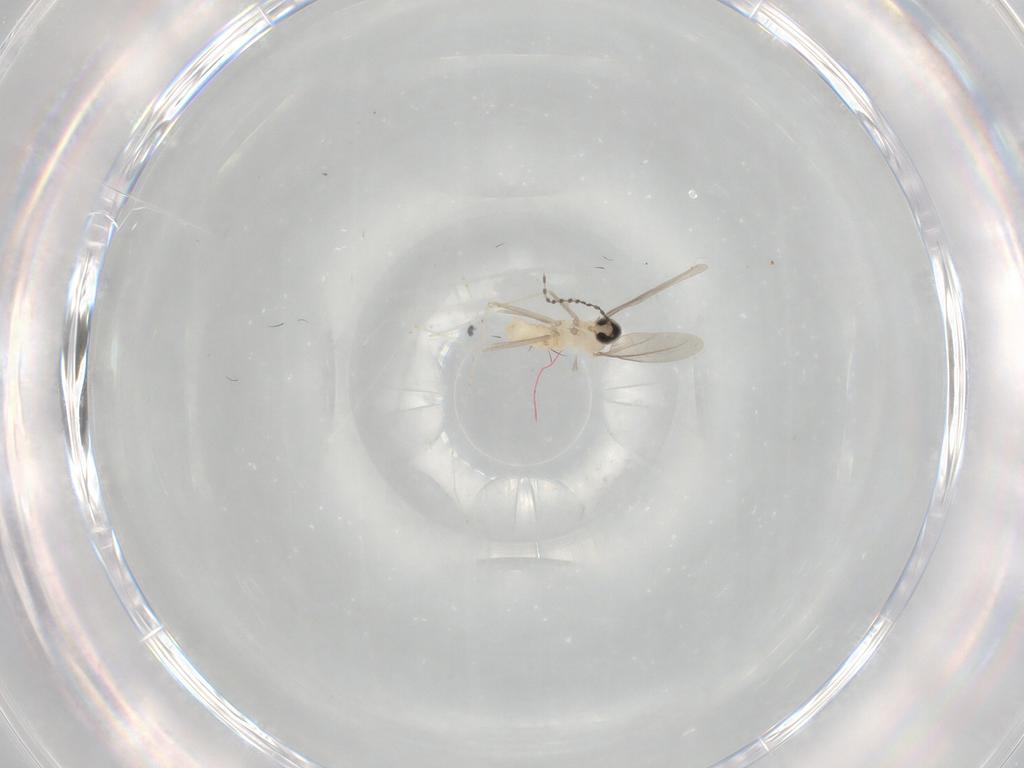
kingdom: Animalia
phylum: Arthropoda
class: Insecta
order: Diptera
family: Cecidomyiidae
